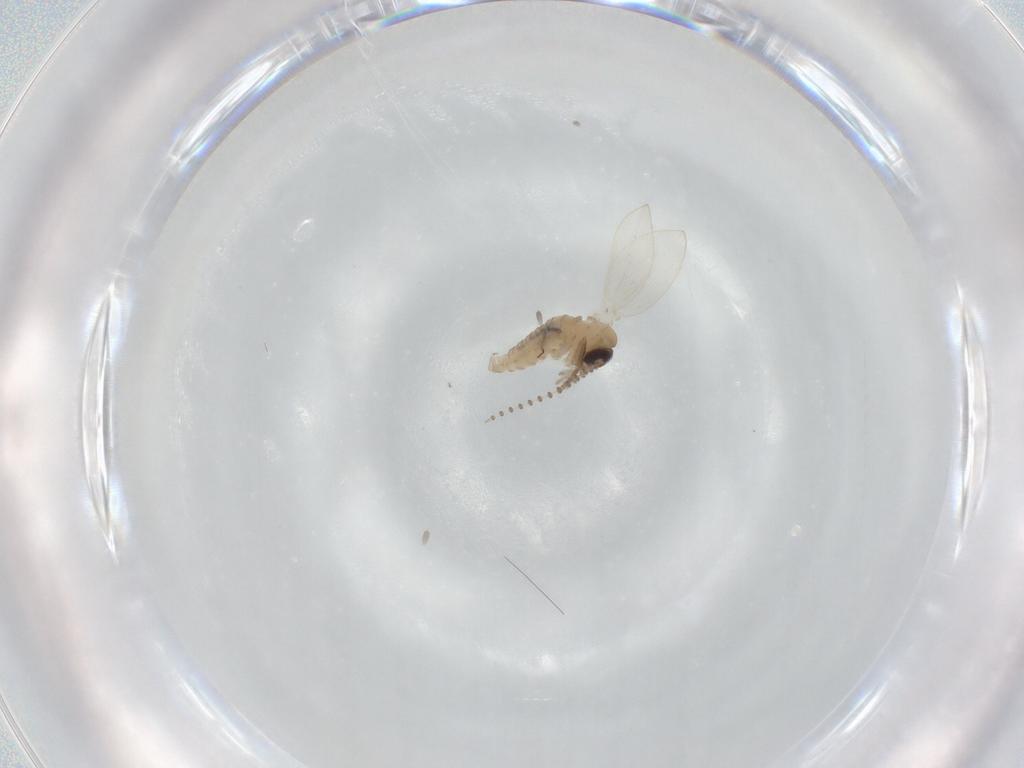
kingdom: Animalia
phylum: Arthropoda
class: Insecta
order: Diptera
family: Psychodidae
